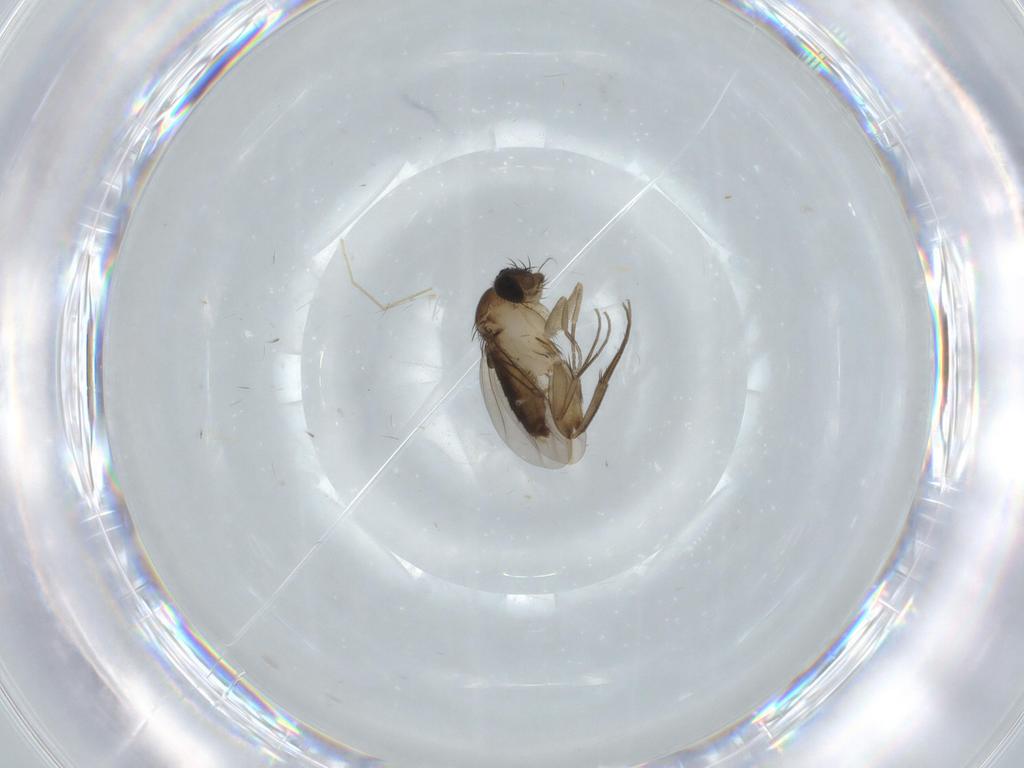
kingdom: Animalia
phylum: Arthropoda
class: Insecta
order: Diptera
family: Phoridae
